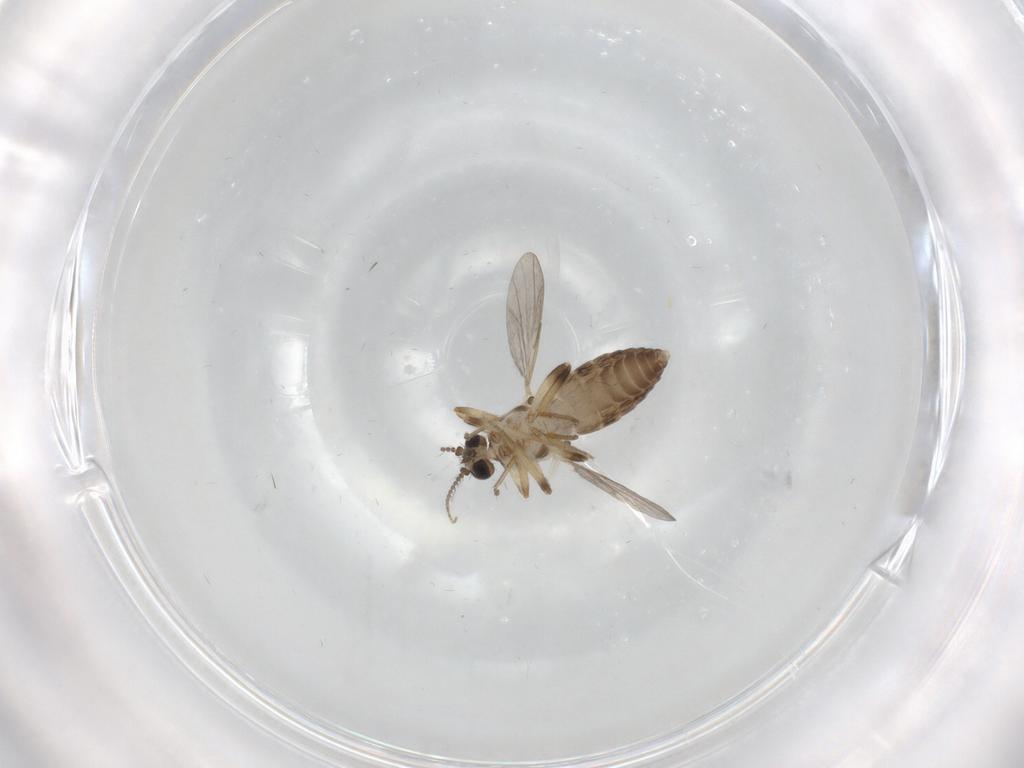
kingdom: Animalia
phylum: Arthropoda
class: Insecta
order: Diptera
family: Ceratopogonidae
